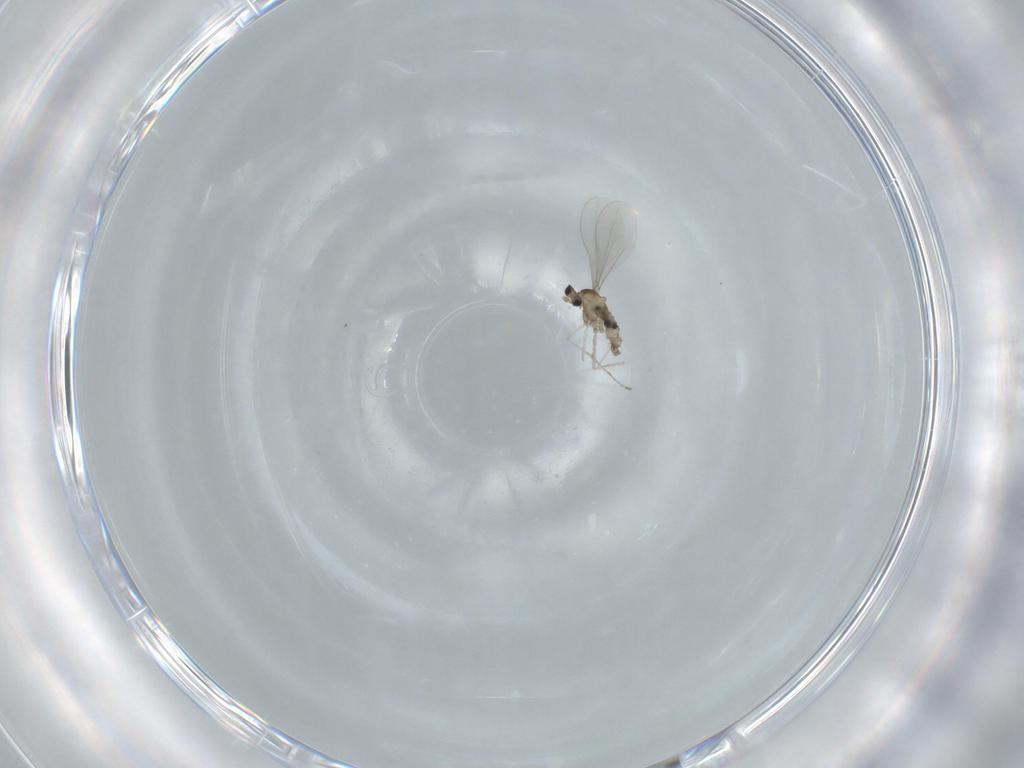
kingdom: Animalia
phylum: Arthropoda
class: Insecta
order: Diptera
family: Cecidomyiidae
